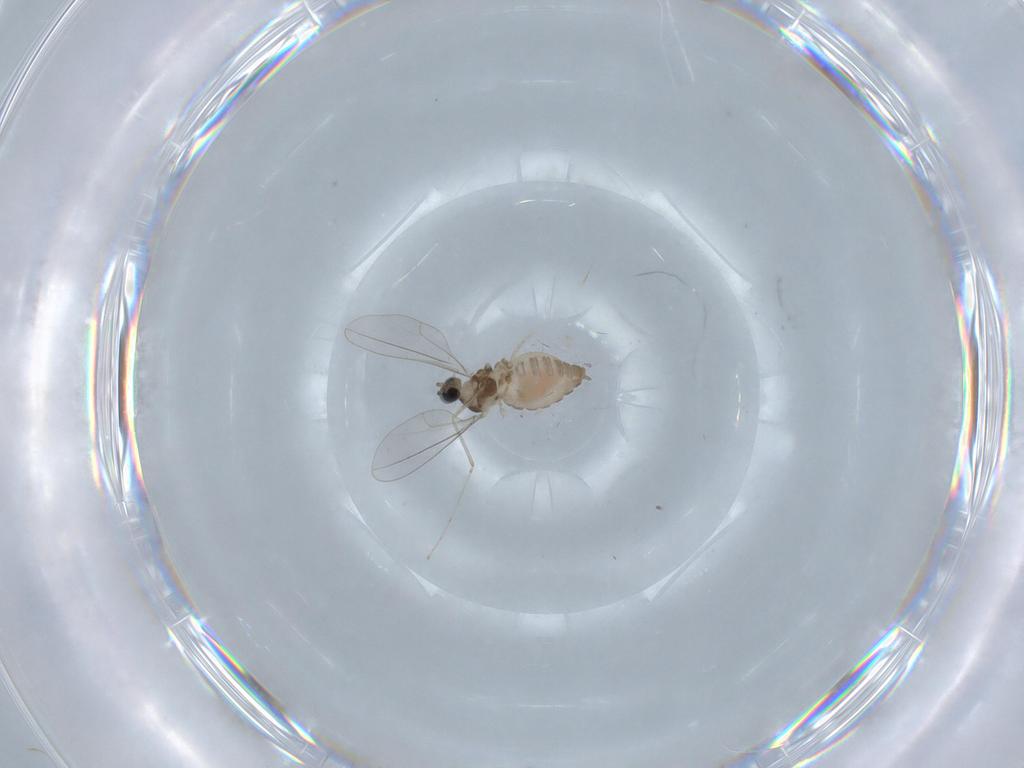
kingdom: Animalia
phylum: Arthropoda
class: Insecta
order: Diptera
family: Cecidomyiidae
